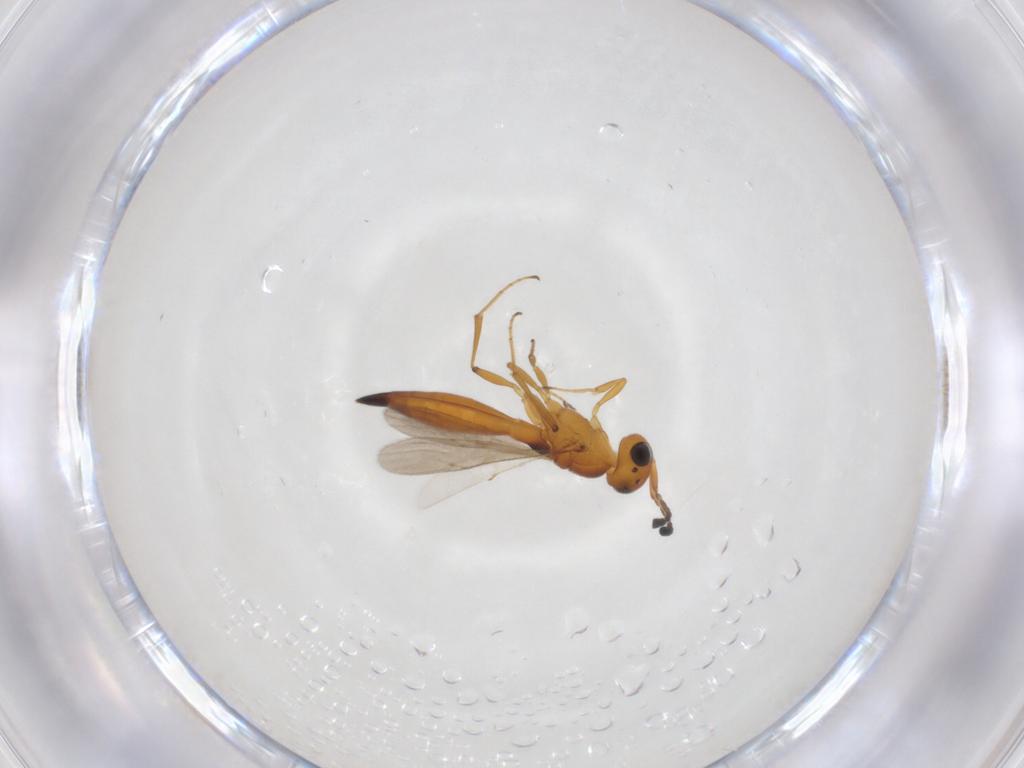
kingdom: Animalia
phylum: Arthropoda
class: Insecta
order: Hymenoptera
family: Scelionidae
